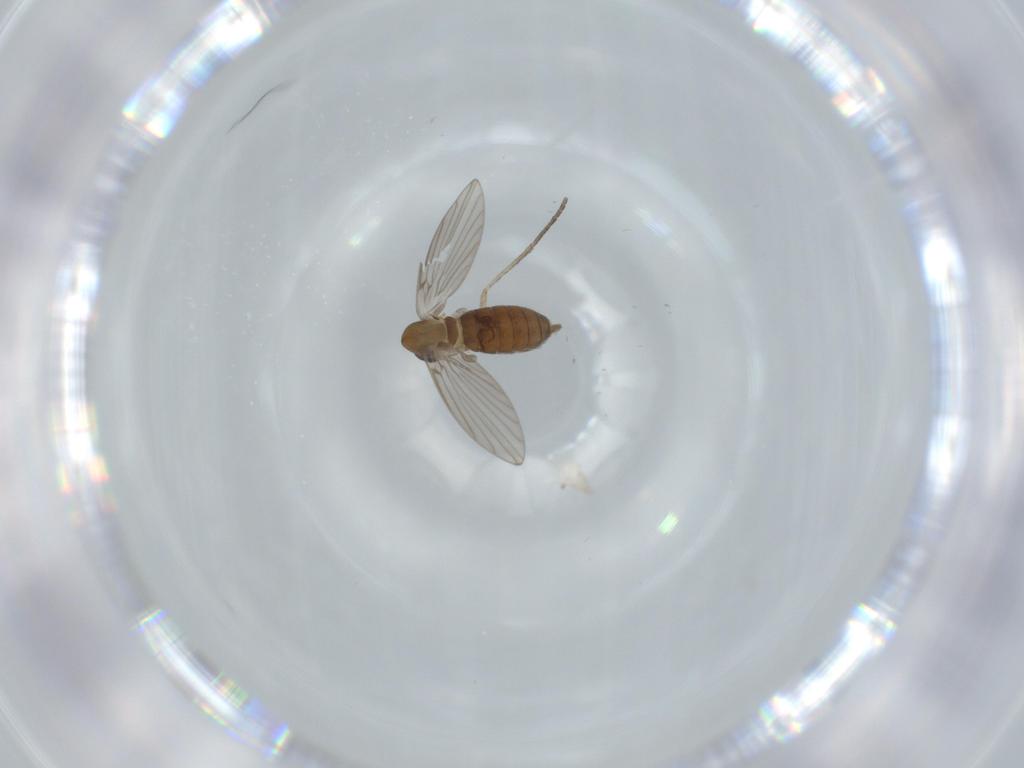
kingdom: Animalia
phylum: Arthropoda
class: Insecta
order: Diptera
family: Psychodidae
